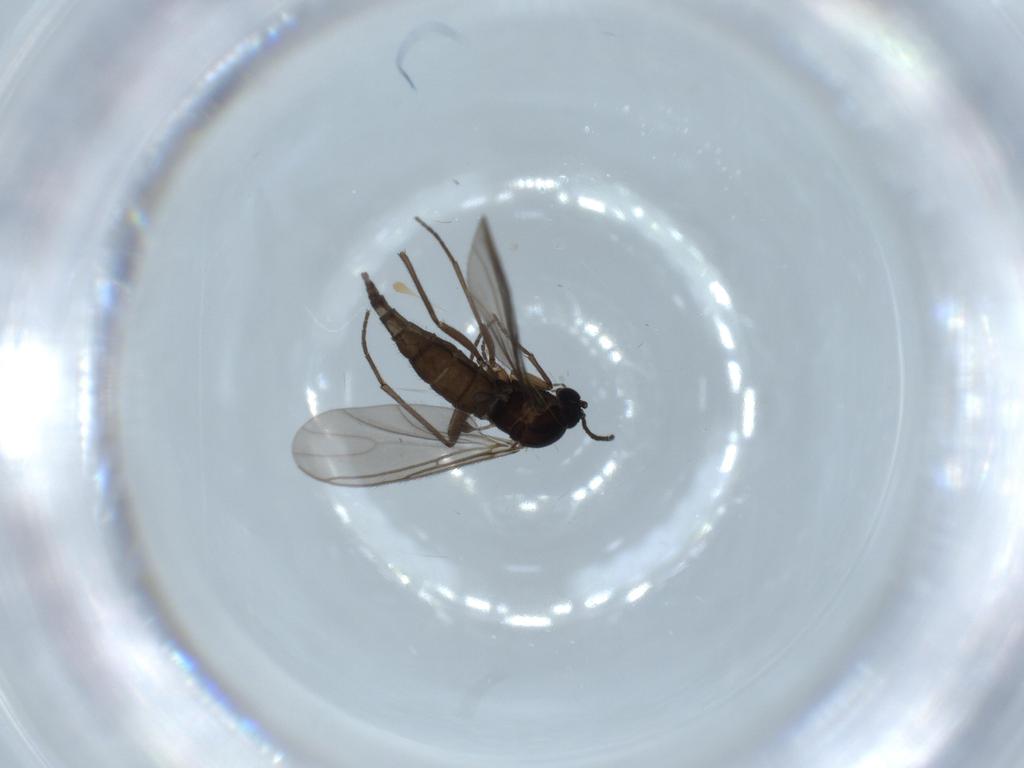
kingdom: Animalia
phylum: Arthropoda
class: Insecta
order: Diptera
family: Sciaridae
